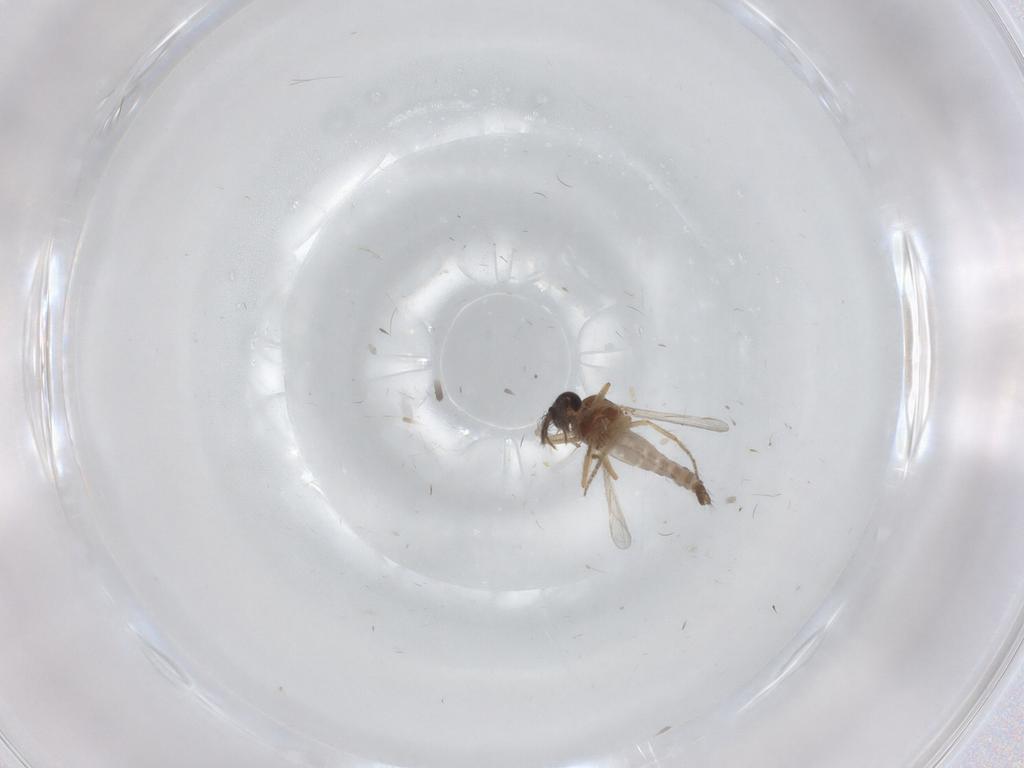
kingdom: Animalia
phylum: Arthropoda
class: Insecta
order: Diptera
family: Psychodidae
